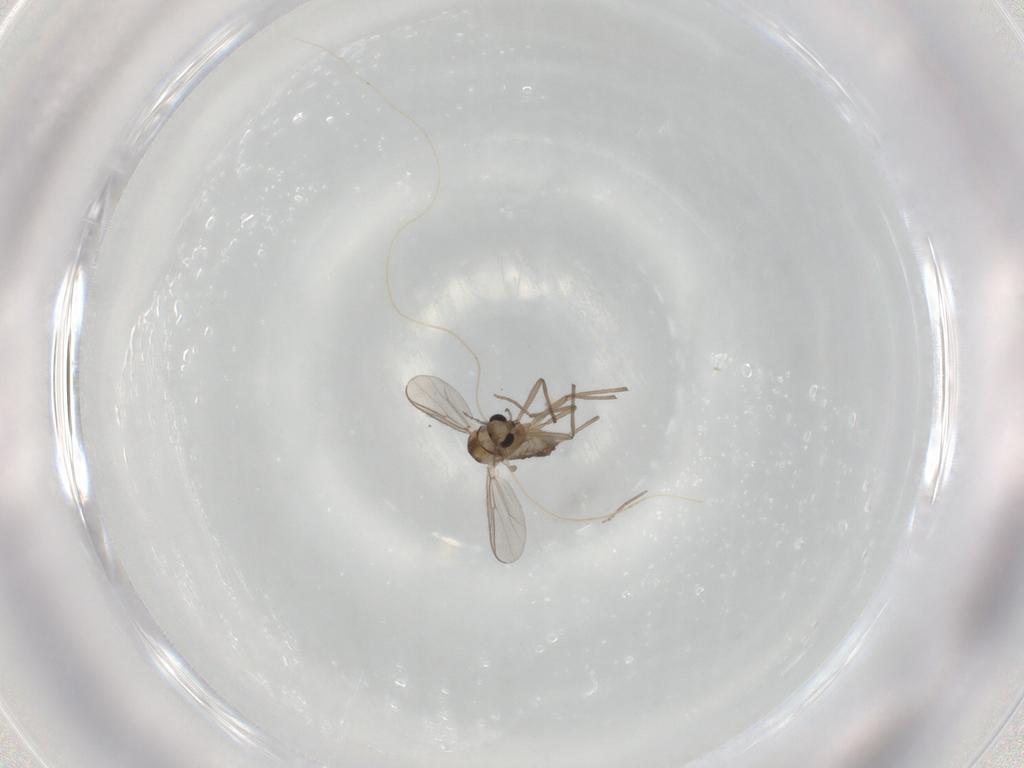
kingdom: Animalia
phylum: Arthropoda
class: Insecta
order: Diptera
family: Chironomidae
